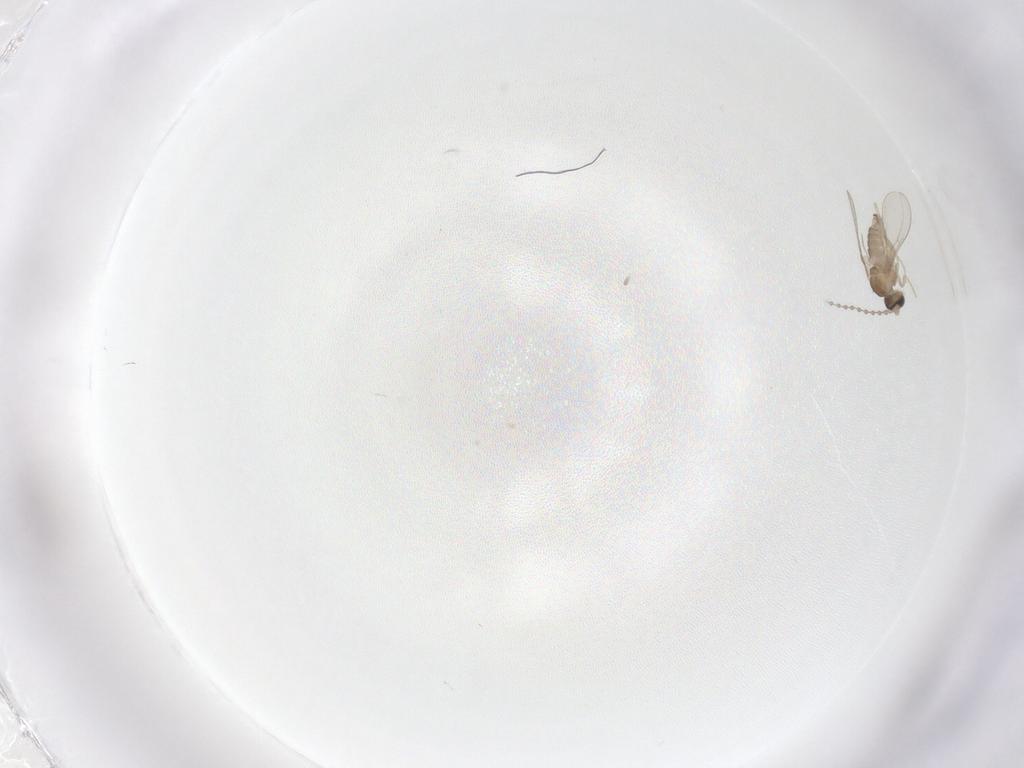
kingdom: Animalia
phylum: Arthropoda
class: Insecta
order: Diptera
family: Cecidomyiidae
